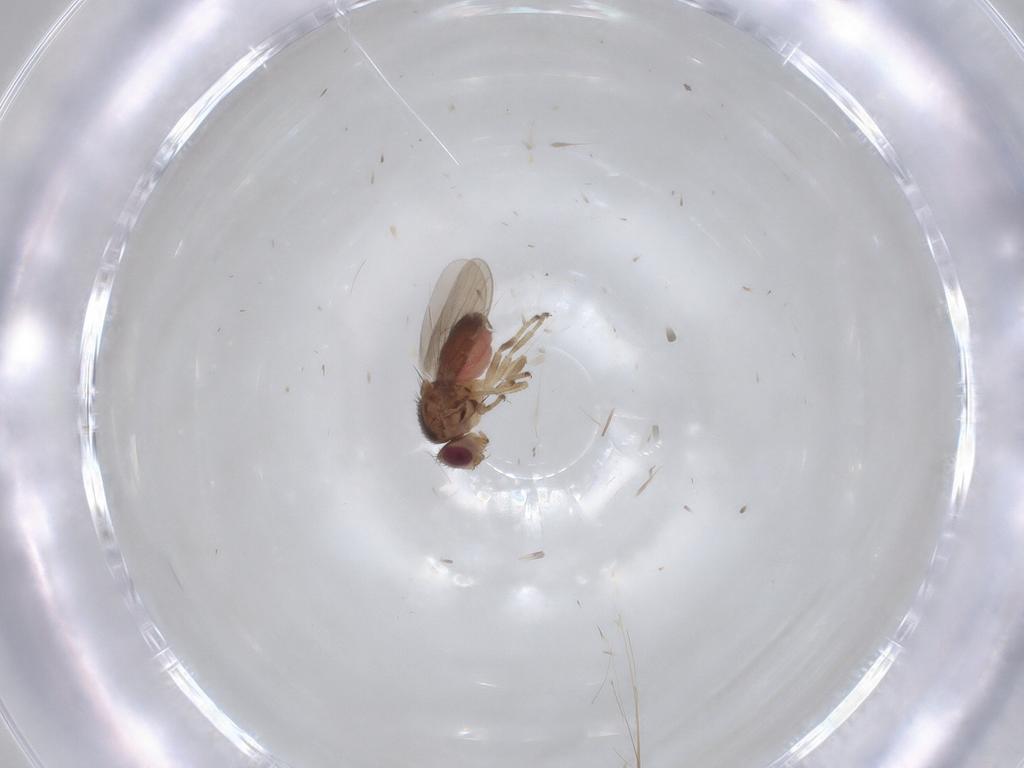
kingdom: Animalia
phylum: Arthropoda
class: Insecta
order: Diptera
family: Chloropidae
